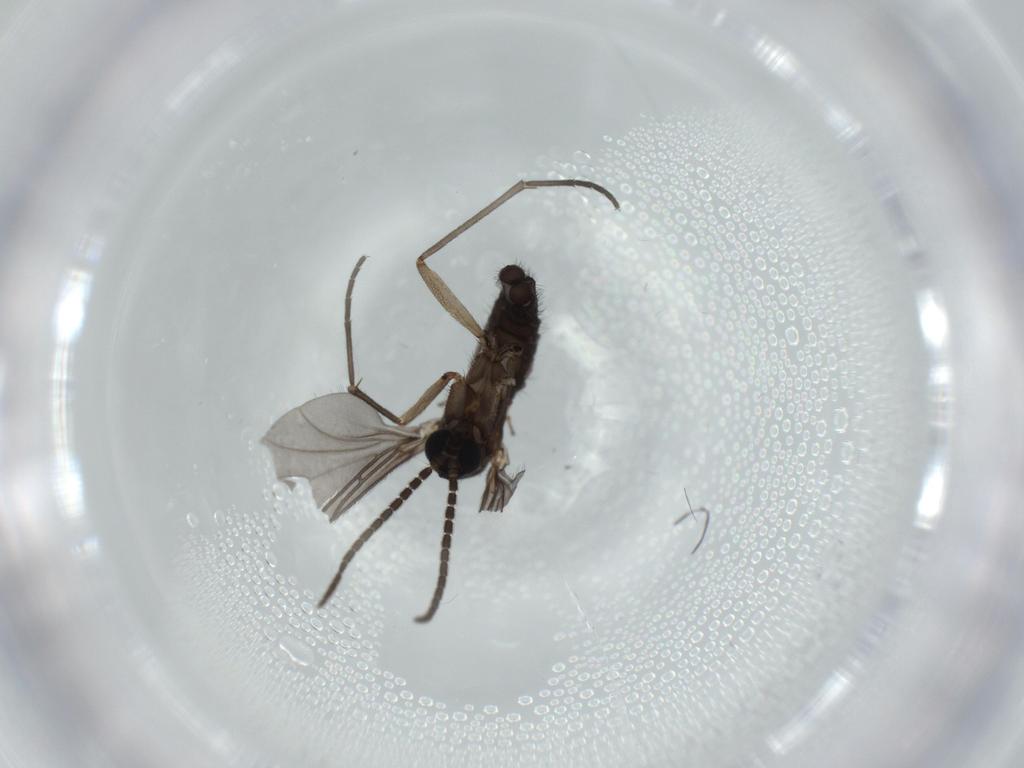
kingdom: Animalia
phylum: Arthropoda
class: Insecta
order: Diptera
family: Sciaridae
